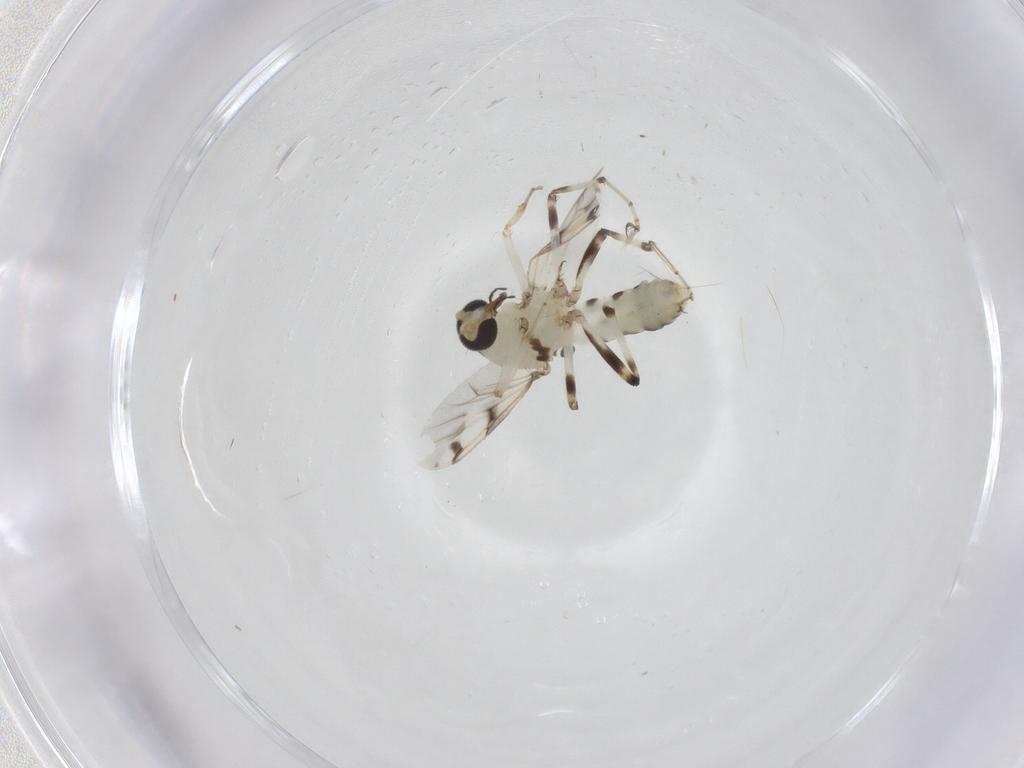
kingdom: Animalia
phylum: Arthropoda
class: Insecta
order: Diptera
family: Ceratopogonidae
